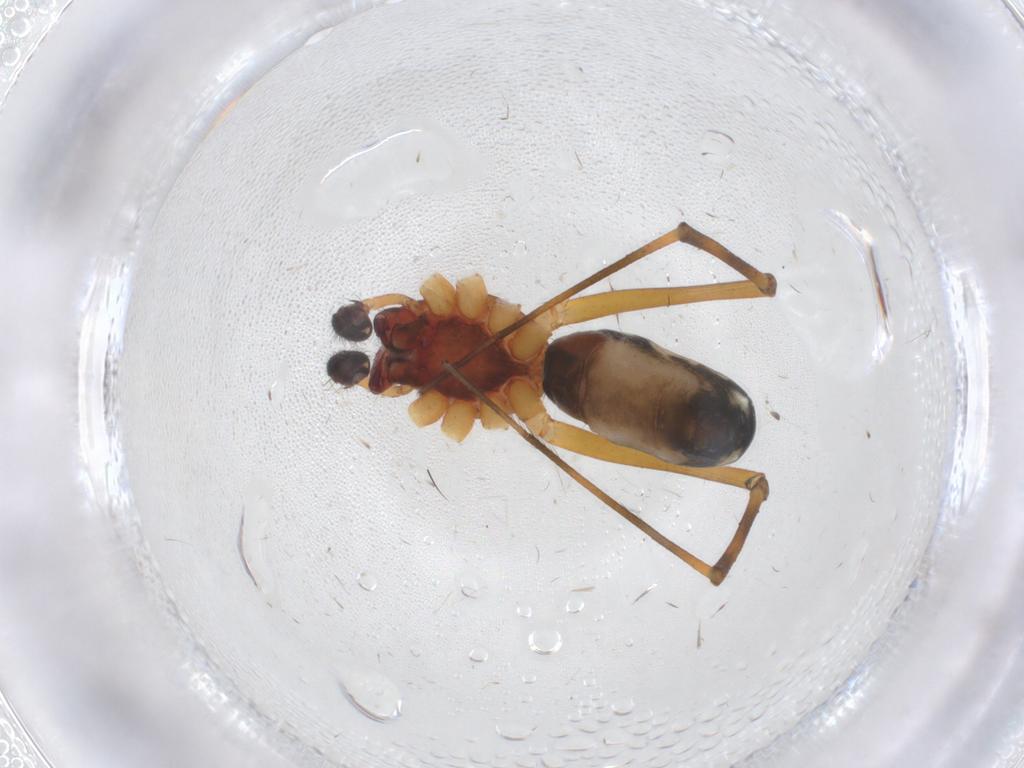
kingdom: Animalia
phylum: Arthropoda
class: Arachnida
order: Araneae
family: Linyphiidae
